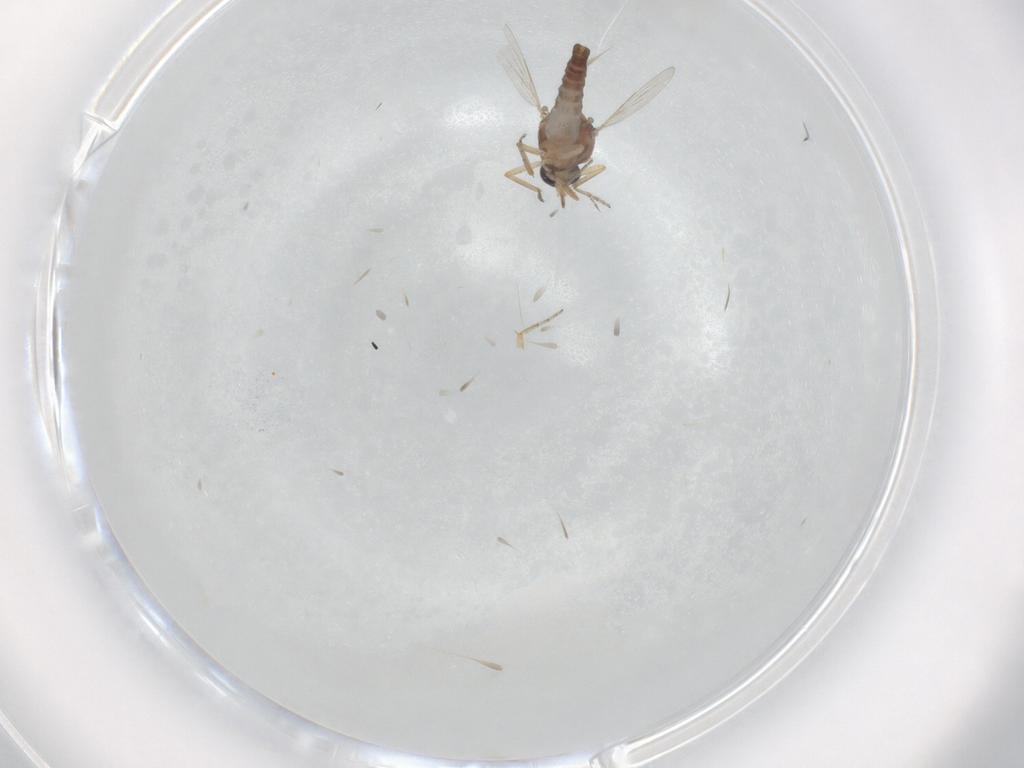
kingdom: Animalia
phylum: Arthropoda
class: Insecta
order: Diptera
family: Ceratopogonidae
